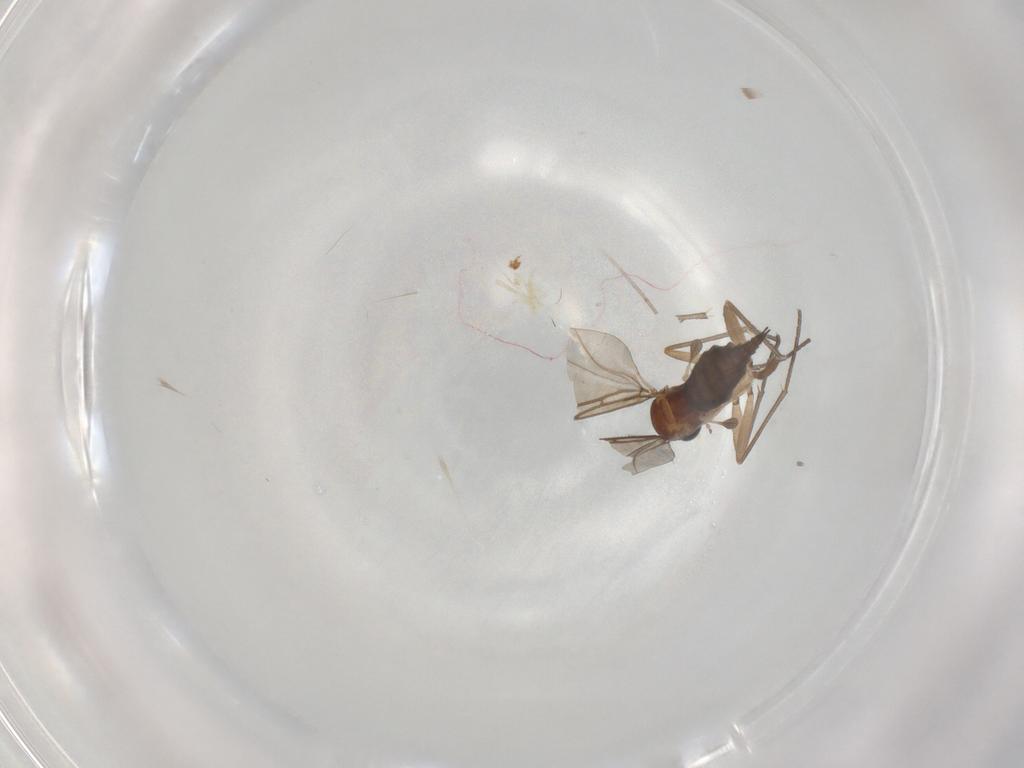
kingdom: Animalia
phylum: Arthropoda
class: Insecta
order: Diptera
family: Sciaridae
